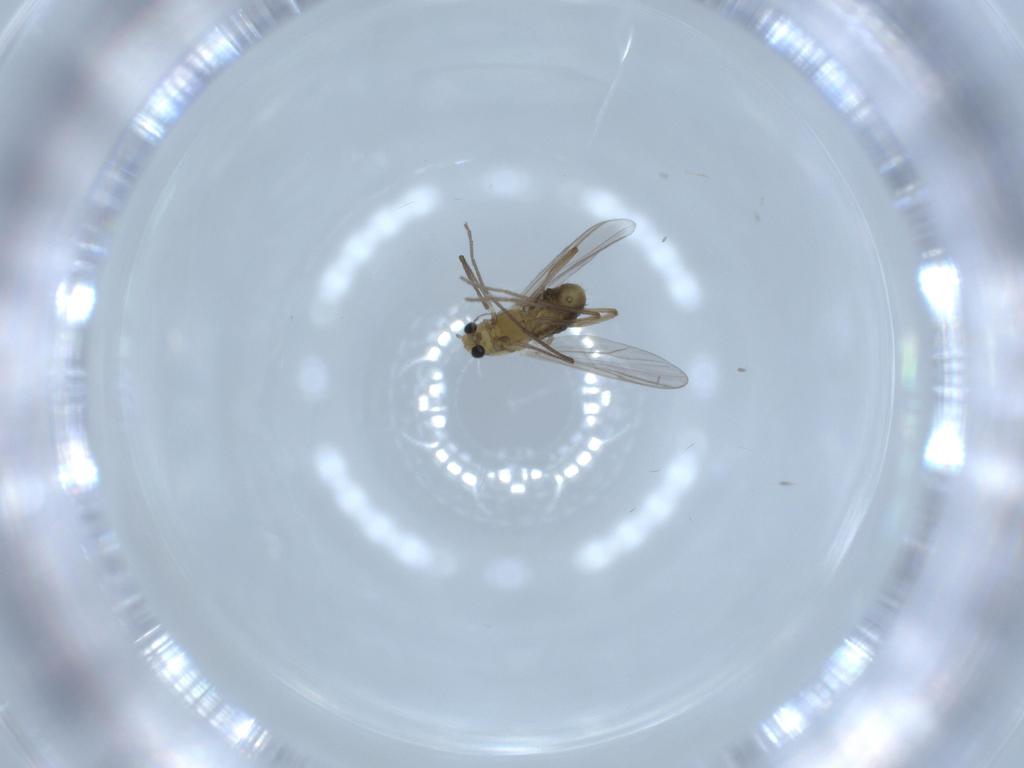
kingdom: Animalia
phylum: Arthropoda
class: Insecta
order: Diptera
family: Chironomidae
